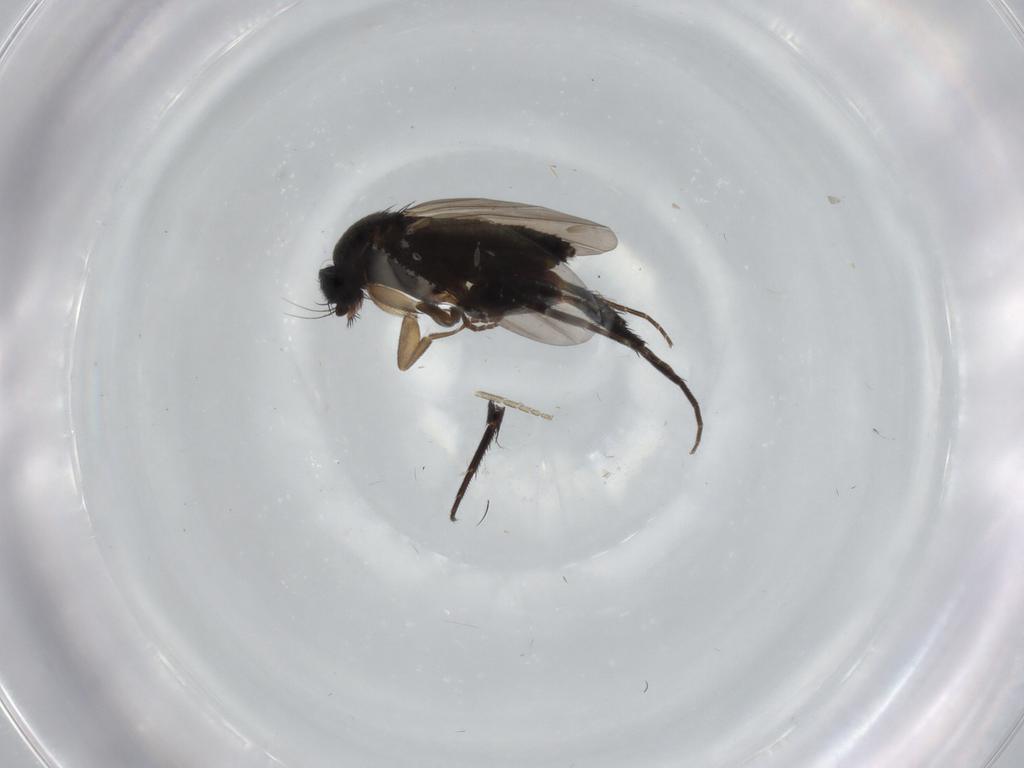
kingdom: Animalia
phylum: Arthropoda
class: Insecta
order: Diptera
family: Phoridae
